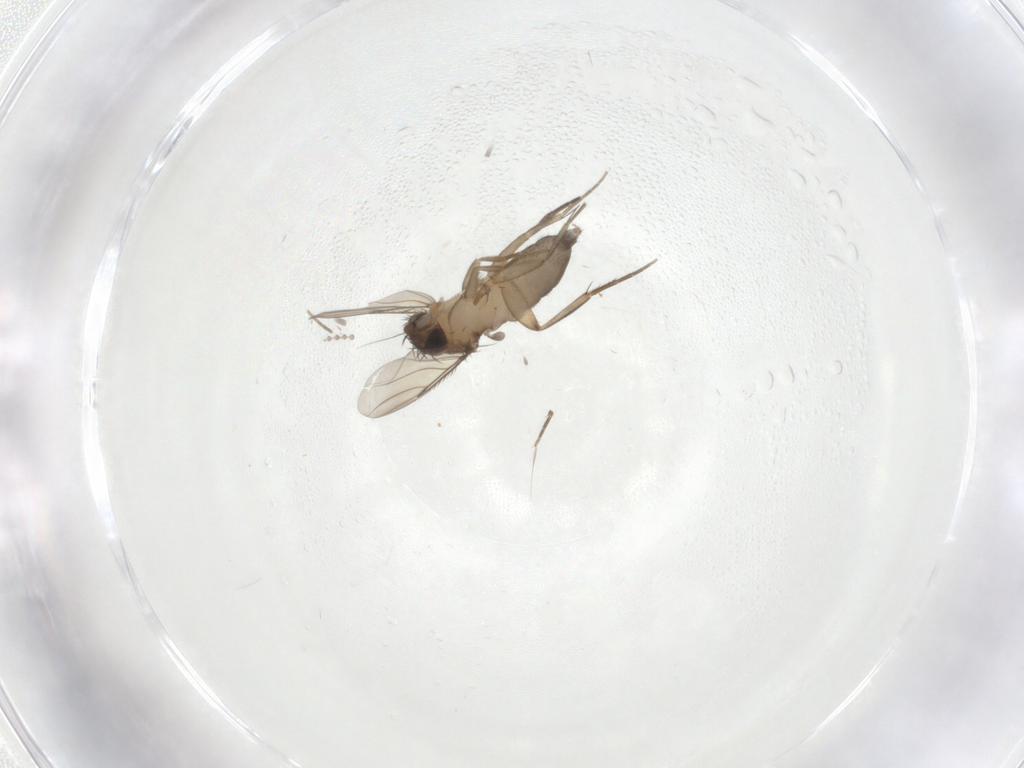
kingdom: Animalia
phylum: Arthropoda
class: Insecta
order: Diptera
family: Phoridae
